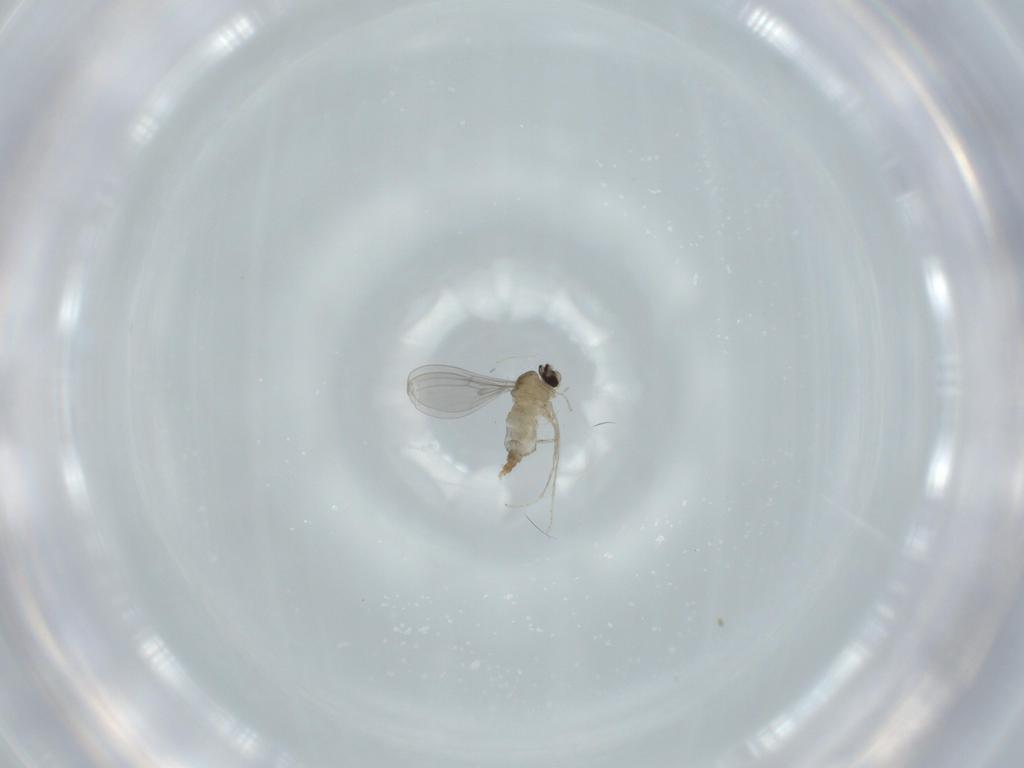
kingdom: Animalia
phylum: Arthropoda
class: Insecta
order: Diptera
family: Cecidomyiidae
